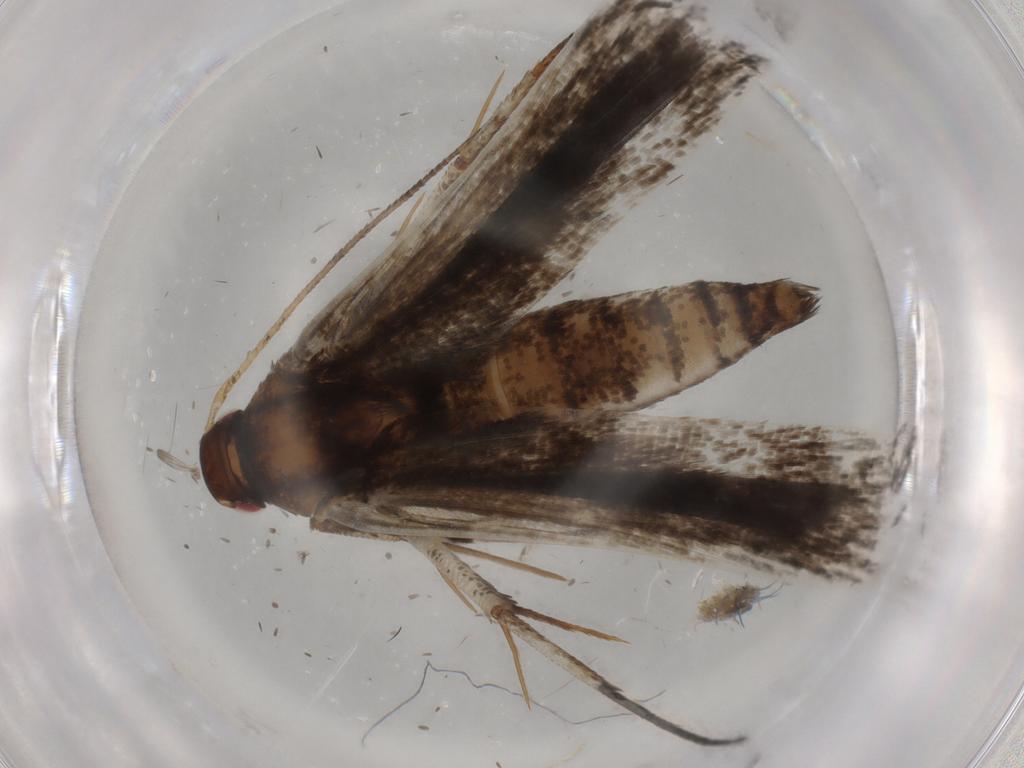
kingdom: Animalia
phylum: Arthropoda
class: Insecta
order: Lepidoptera
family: Gelechiidae
